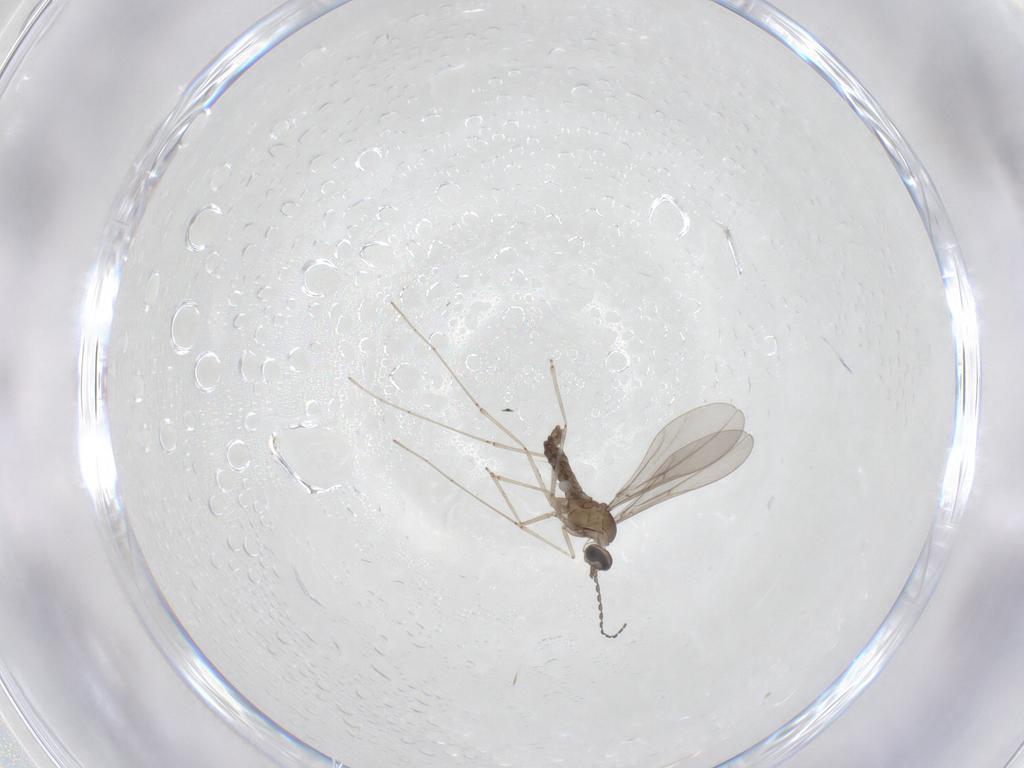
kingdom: Animalia
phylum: Arthropoda
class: Insecta
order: Diptera
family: Cecidomyiidae
